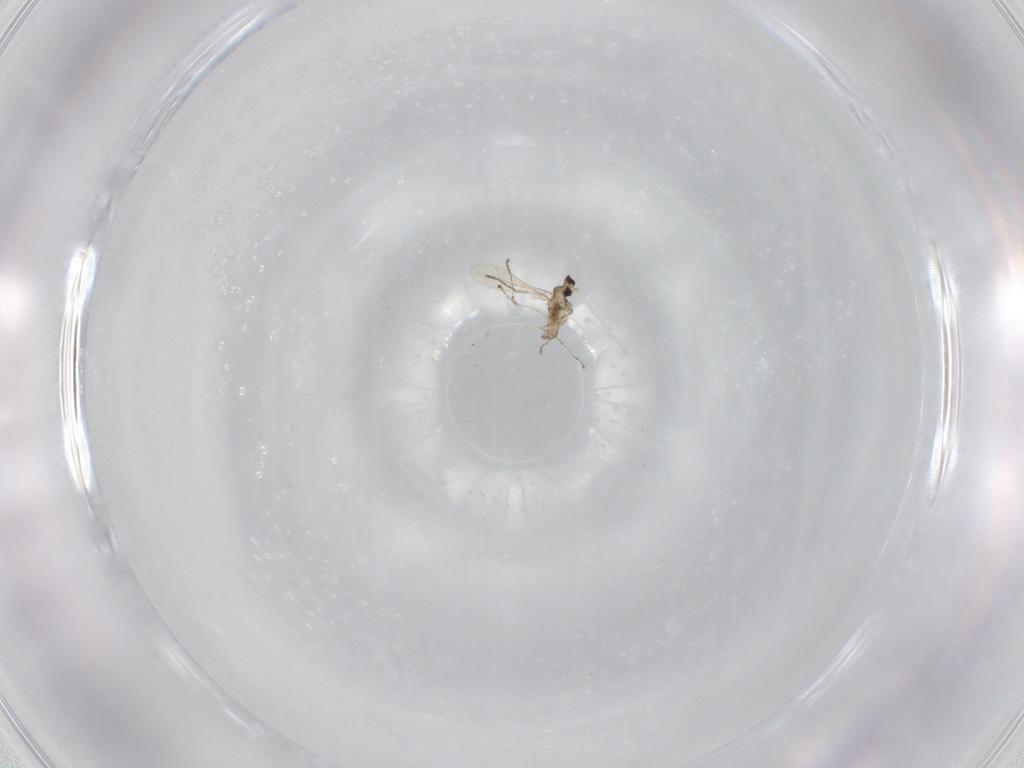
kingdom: Animalia
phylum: Arthropoda
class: Insecta
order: Diptera
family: Cecidomyiidae
